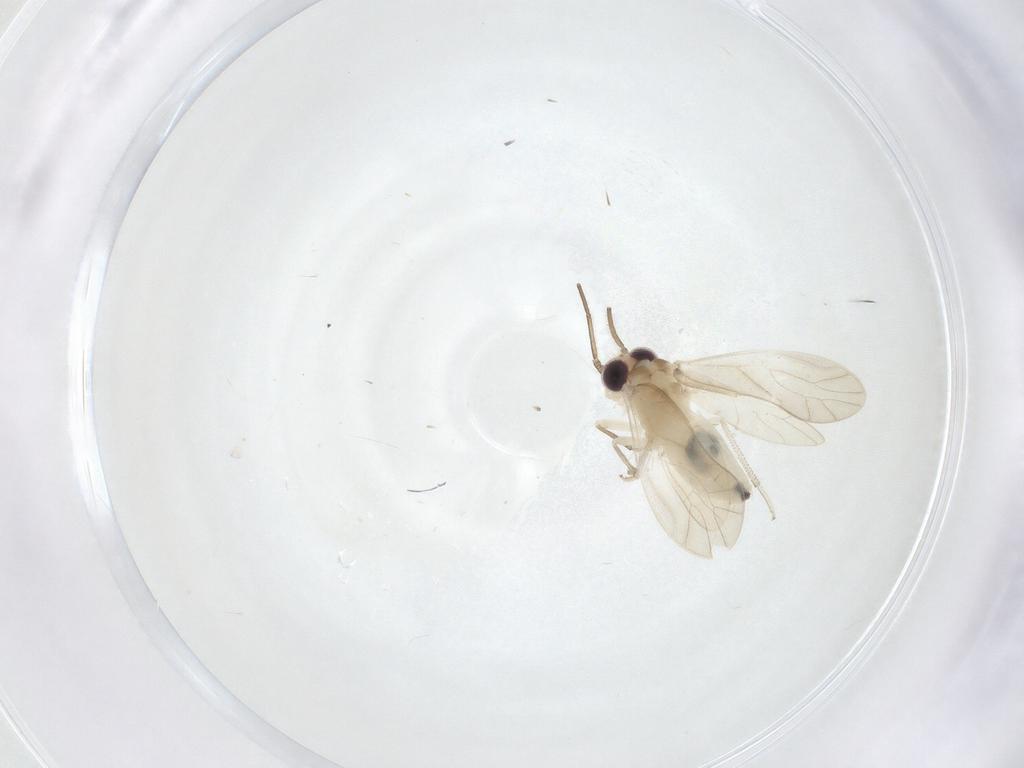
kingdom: Animalia
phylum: Arthropoda
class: Insecta
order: Psocodea
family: Caeciliusidae
